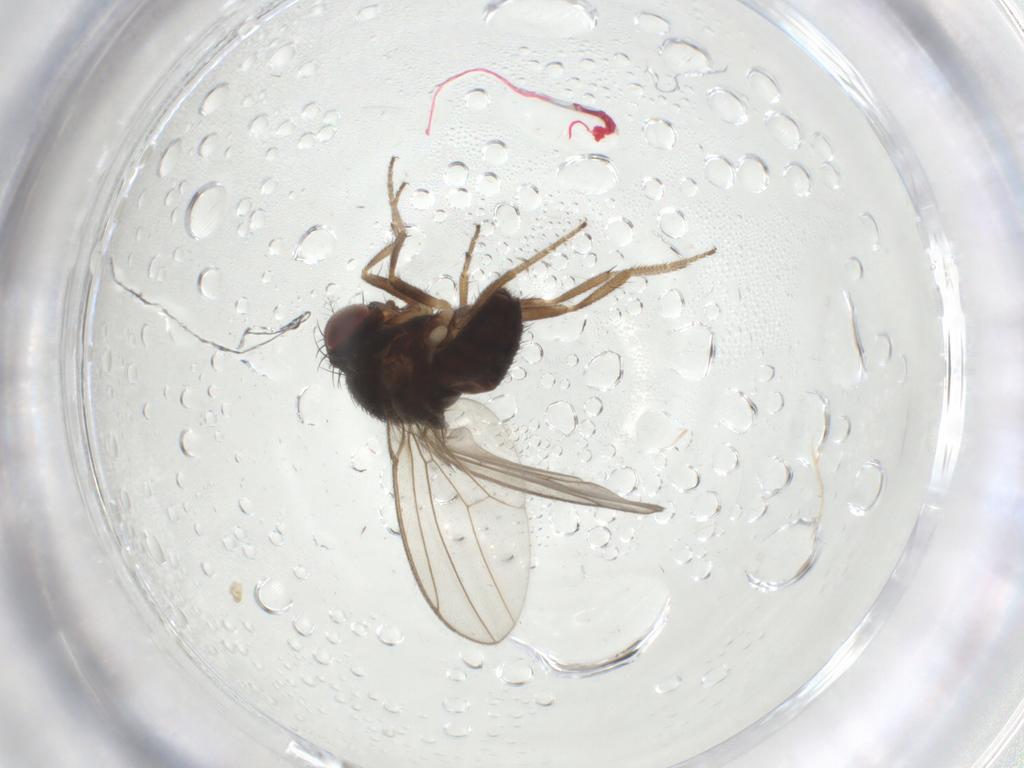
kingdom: Animalia
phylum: Arthropoda
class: Insecta
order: Diptera
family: Drosophilidae
